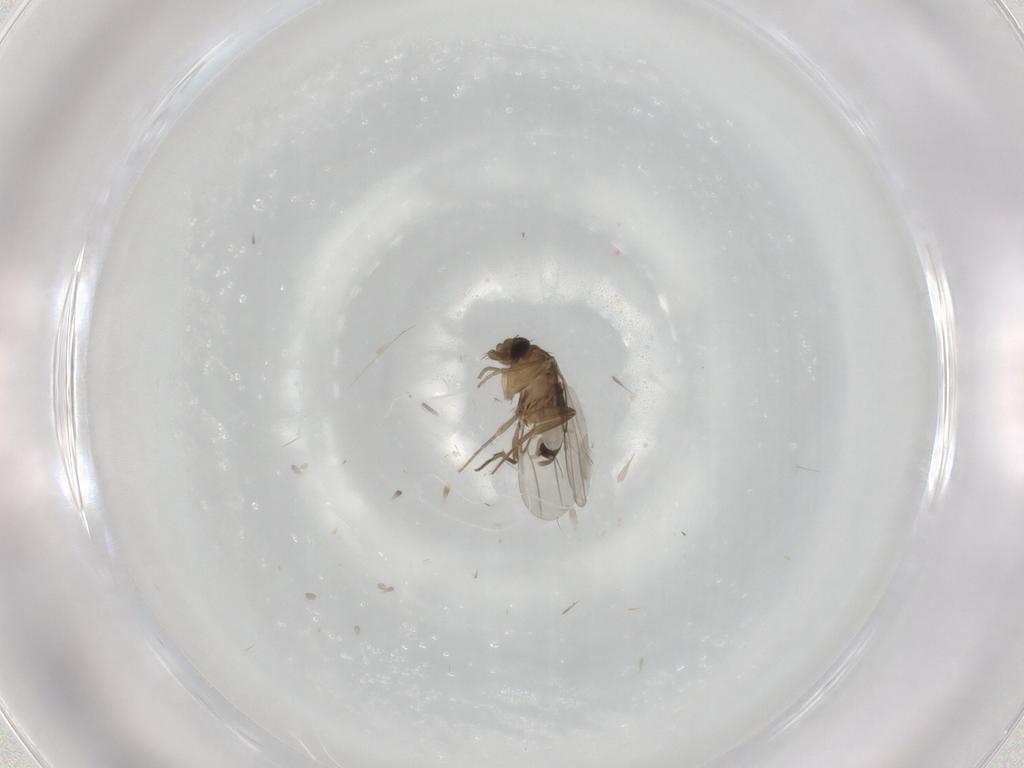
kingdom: Animalia
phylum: Arthropoda
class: Insecta
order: Diptera
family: Phoridae
